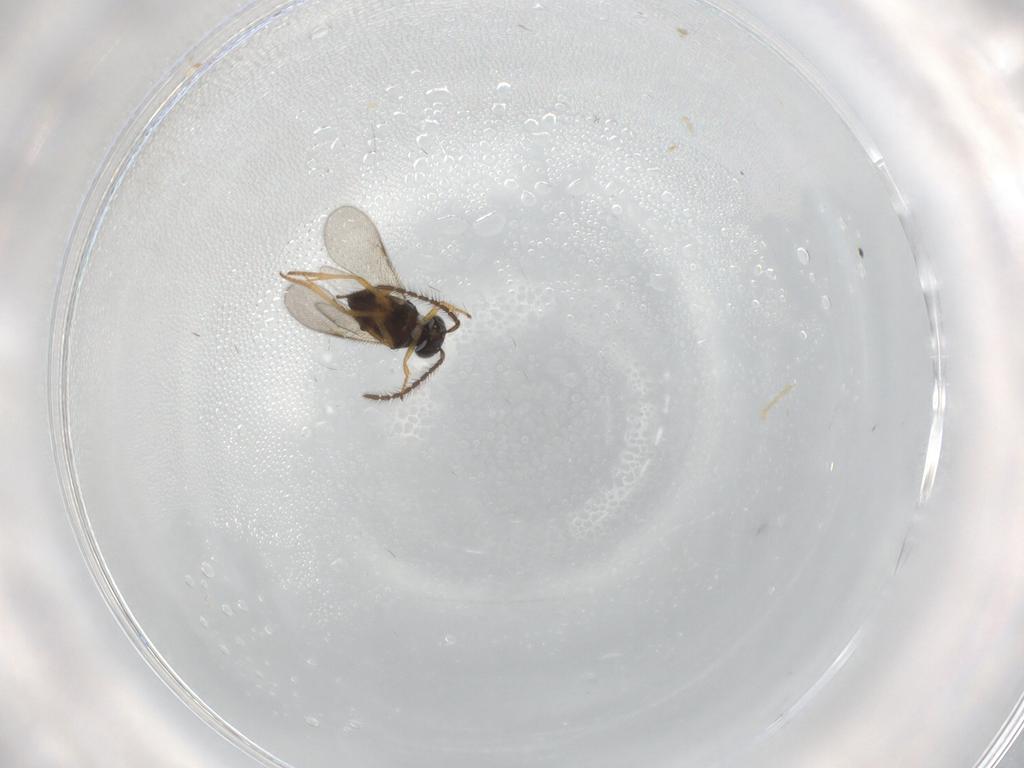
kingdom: Animalia
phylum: Arthropoda
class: Insecta
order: Hymenoptera
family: Encyrtidae
